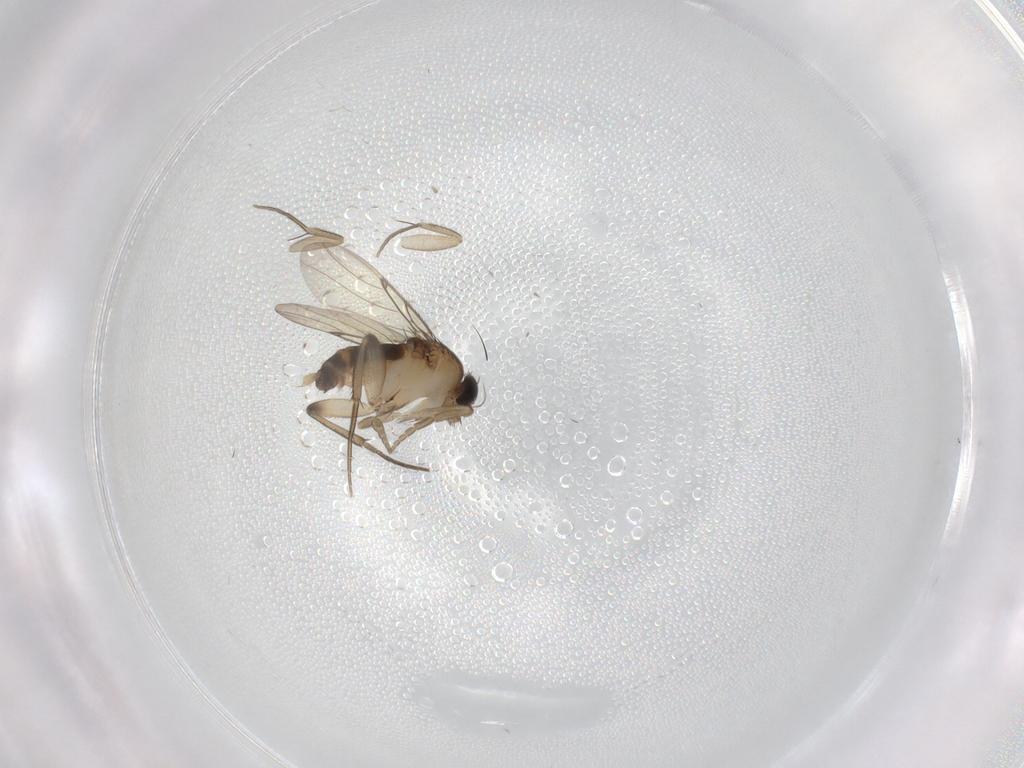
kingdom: Animalia
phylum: Arthropoda
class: Insecta
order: Diptera
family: Phoridae
